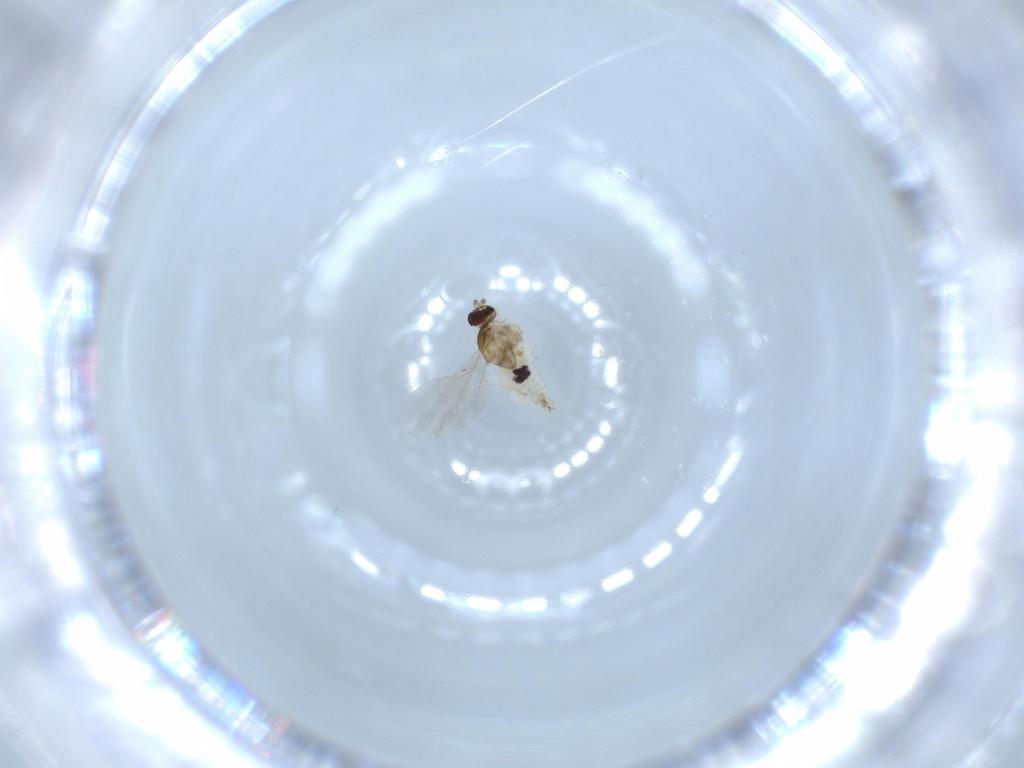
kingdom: Animalia
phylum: Arthropoda
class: Insecta
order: Diptera
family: Cecidomyiidae
